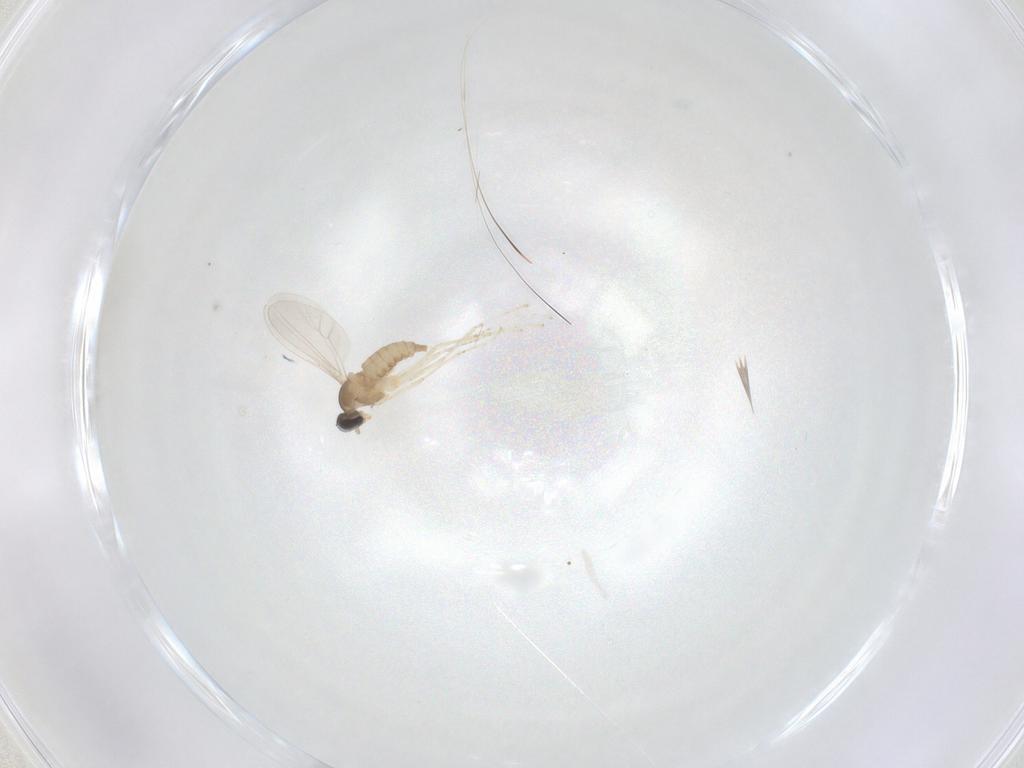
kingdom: Animalia
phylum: Arthropoda
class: Insecta
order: Diptera
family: Cecidomyiidae
